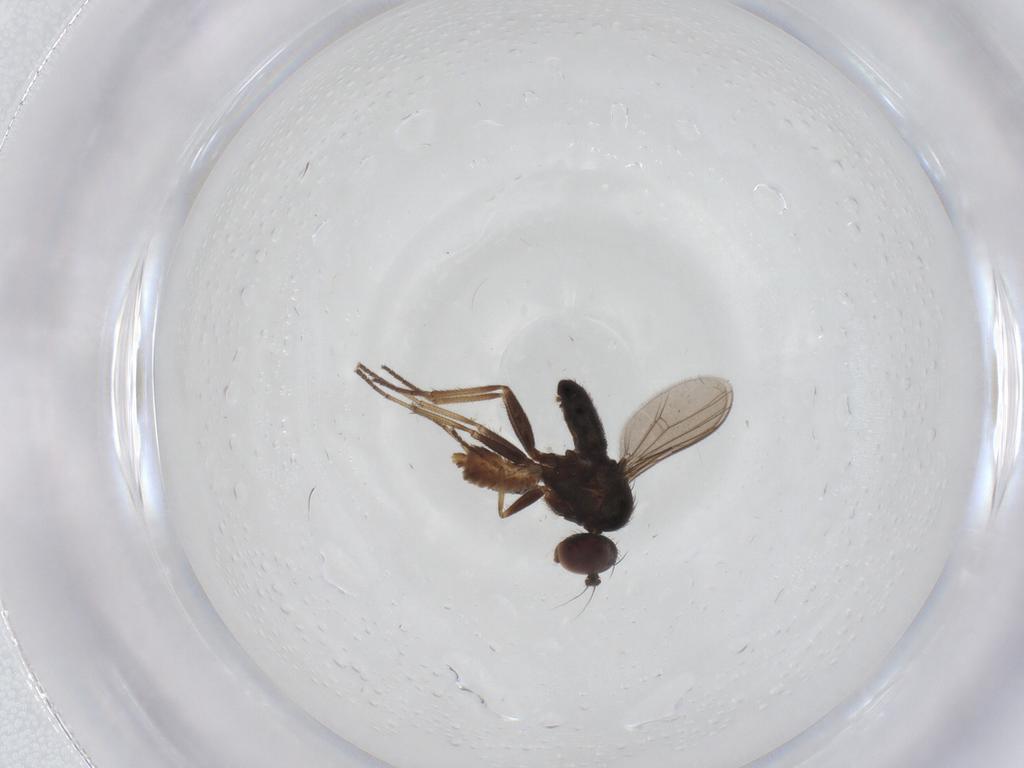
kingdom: Animalia
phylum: Arthropoda
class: Insecta
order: Diptera
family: Dolichopodidae
